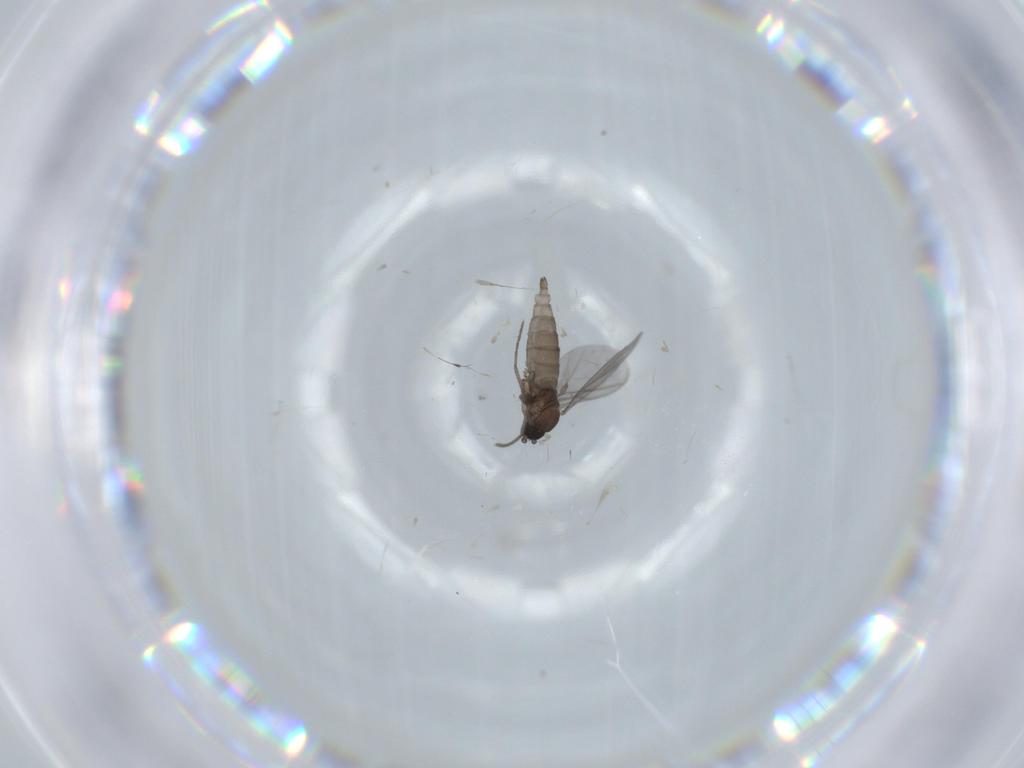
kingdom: Animalia
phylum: Arthropoda
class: Insecta
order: Diptera
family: Sciaridae
